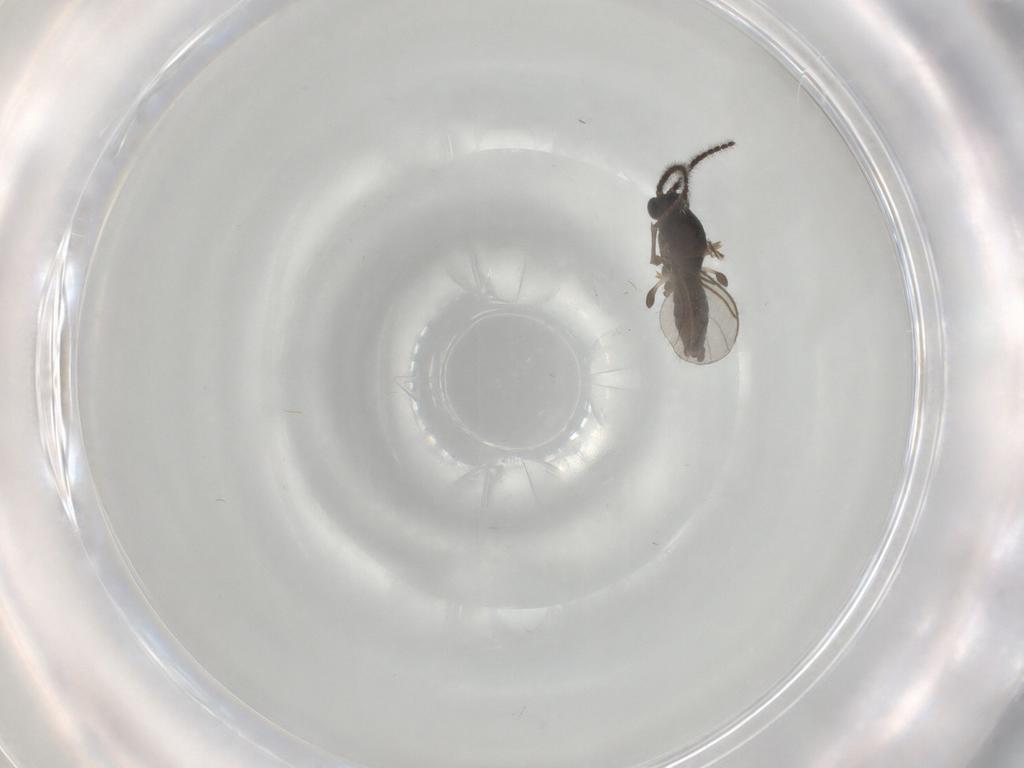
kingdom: Animalia
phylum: Arthropoda
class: Insecta
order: Diptera
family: Sciaridae
